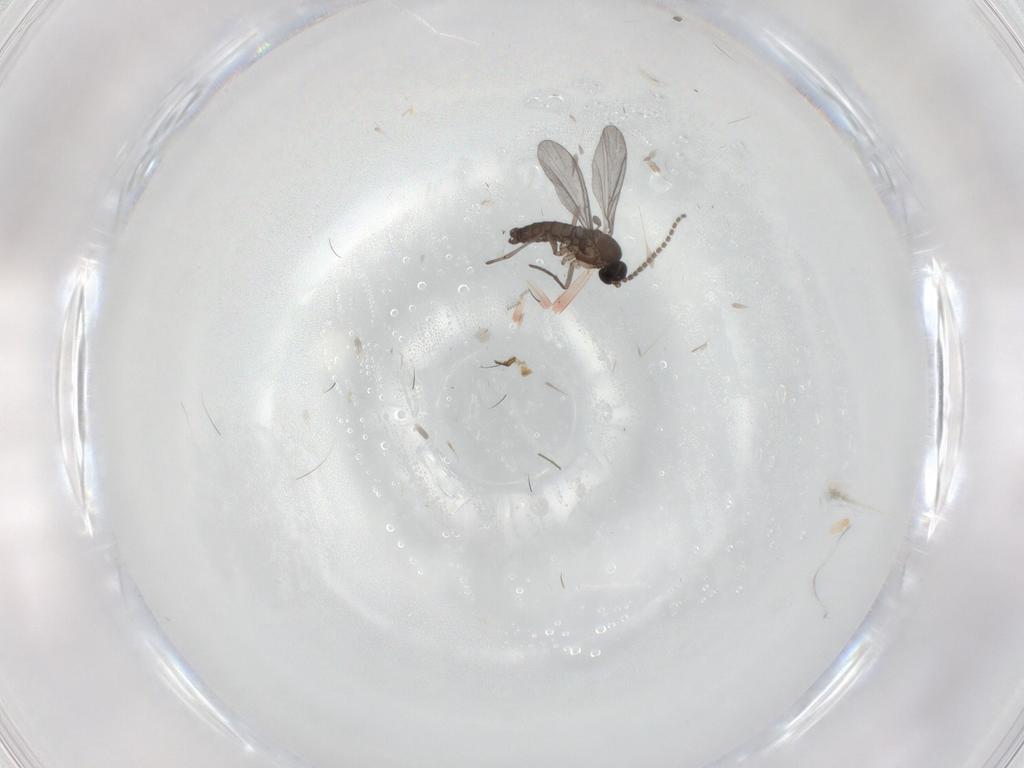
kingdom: Animalia
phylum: Arthropoda
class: Insecta
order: Diptera
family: Sciaridae
